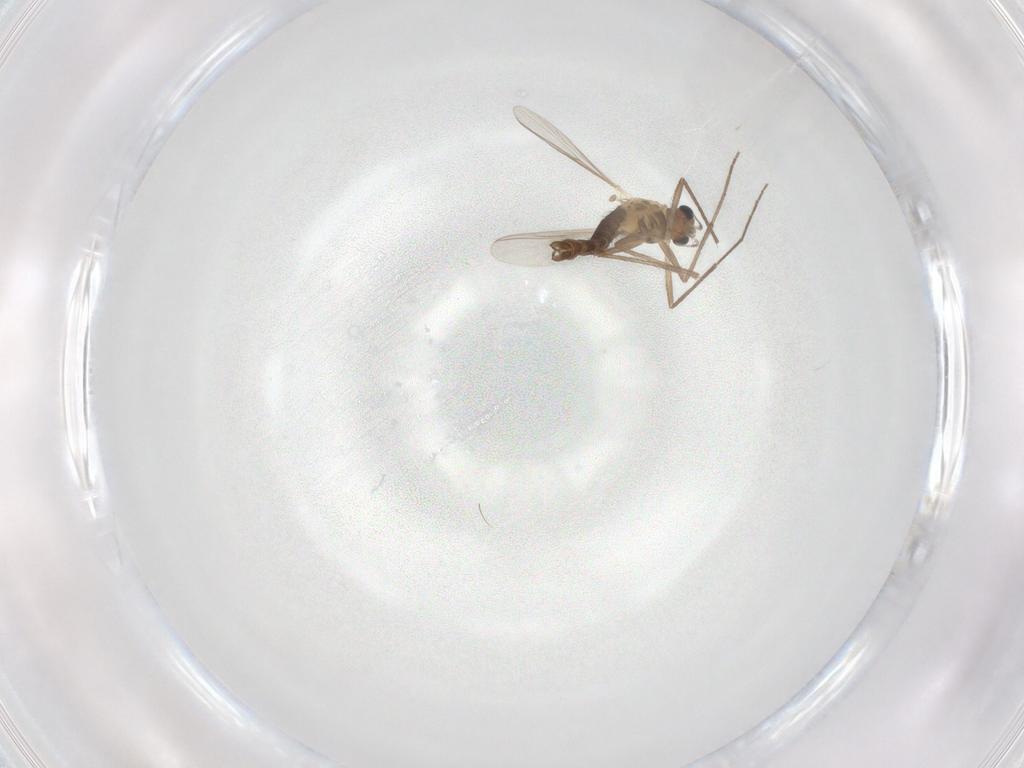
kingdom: Animalia
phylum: Arthropoda
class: Insecta
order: Diptera
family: Chironomidae
